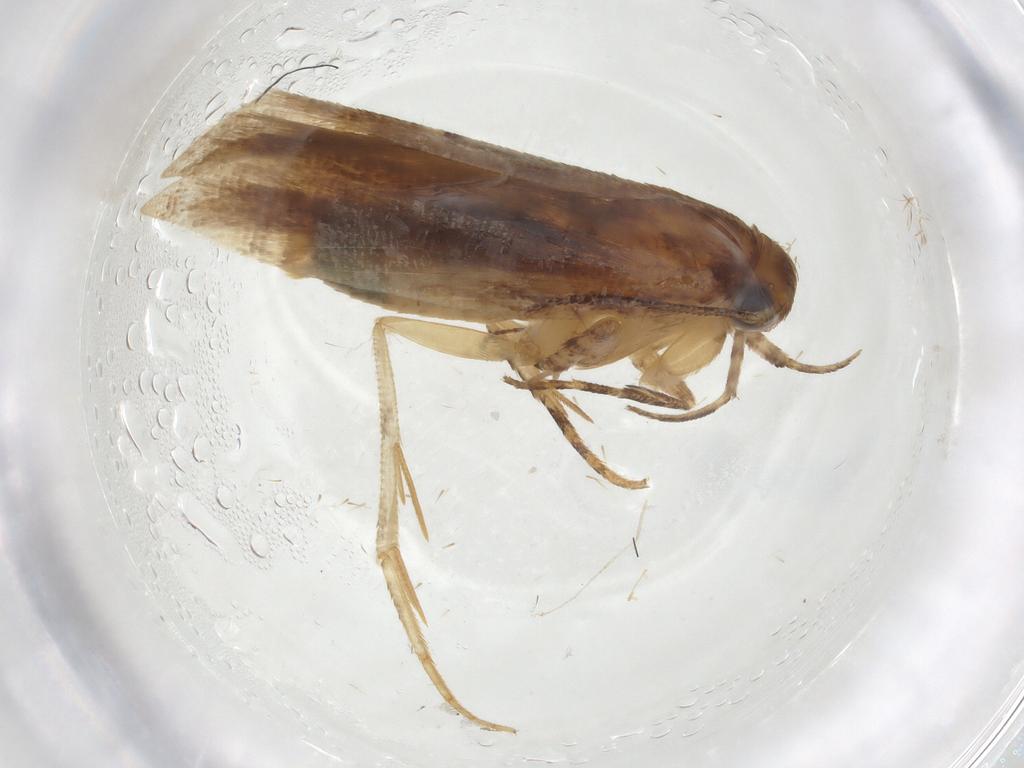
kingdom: Animalia
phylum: Arthropoda
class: Insecta
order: Lepidoptera
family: Gelechiidae
